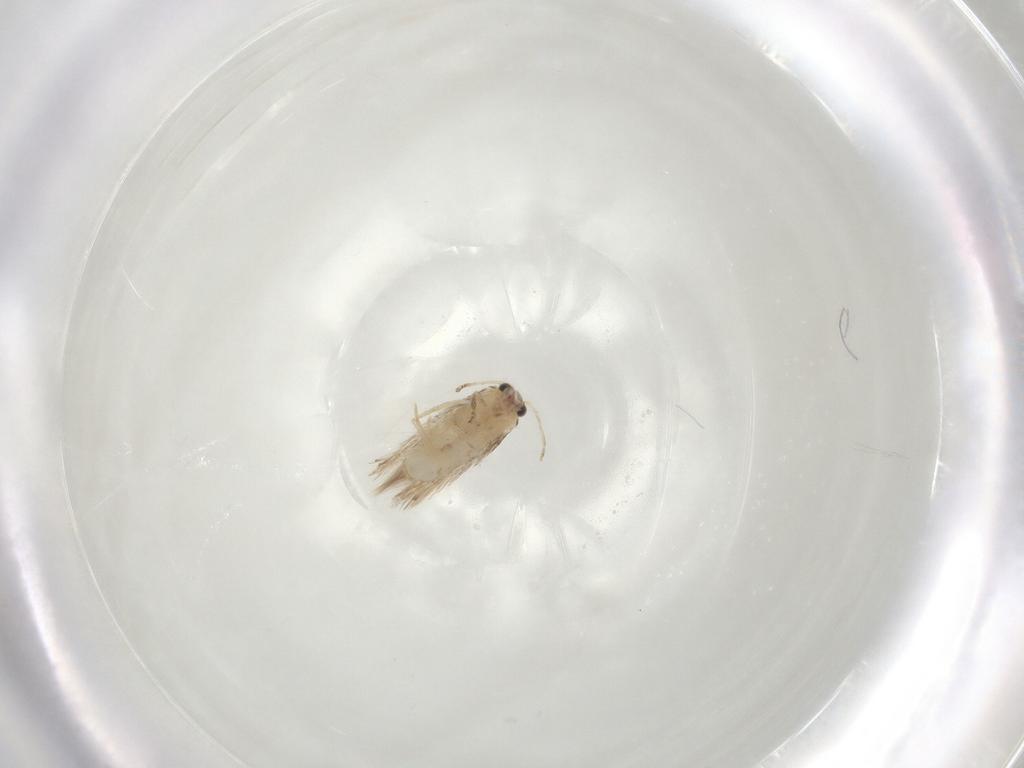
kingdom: Animalia
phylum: Arthropoda
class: Insecta
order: Lepidoptera
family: Nepticulidae
